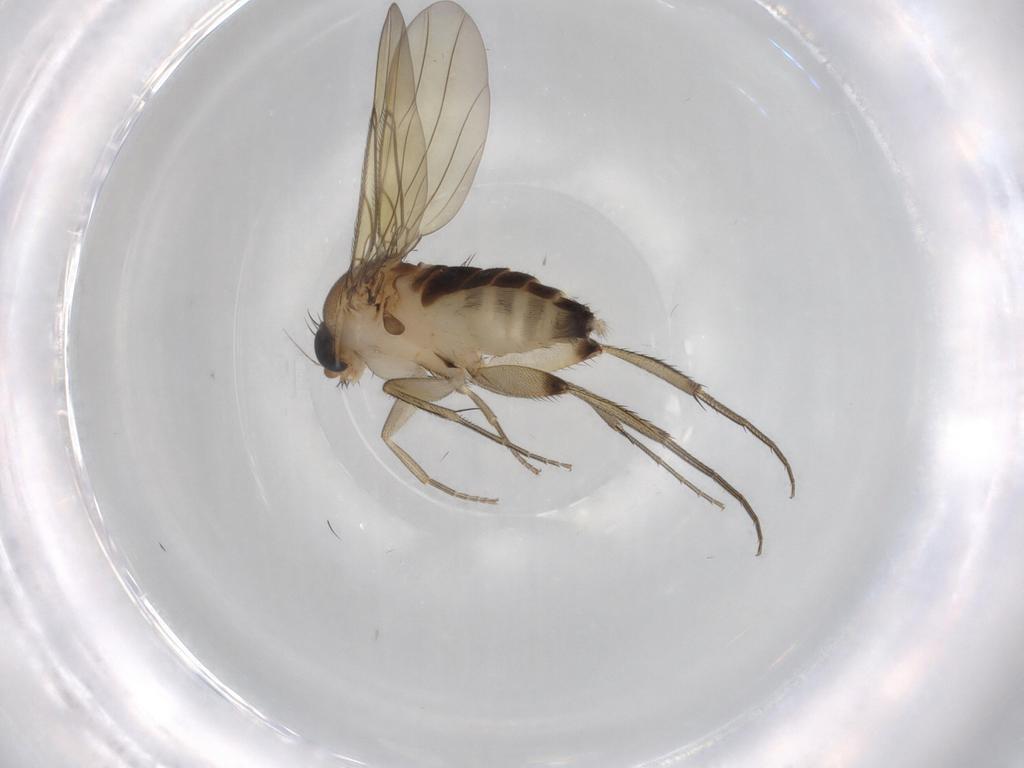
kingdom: Animalia
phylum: Arthropoda
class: Insecta
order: Diptera
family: Phoridae
